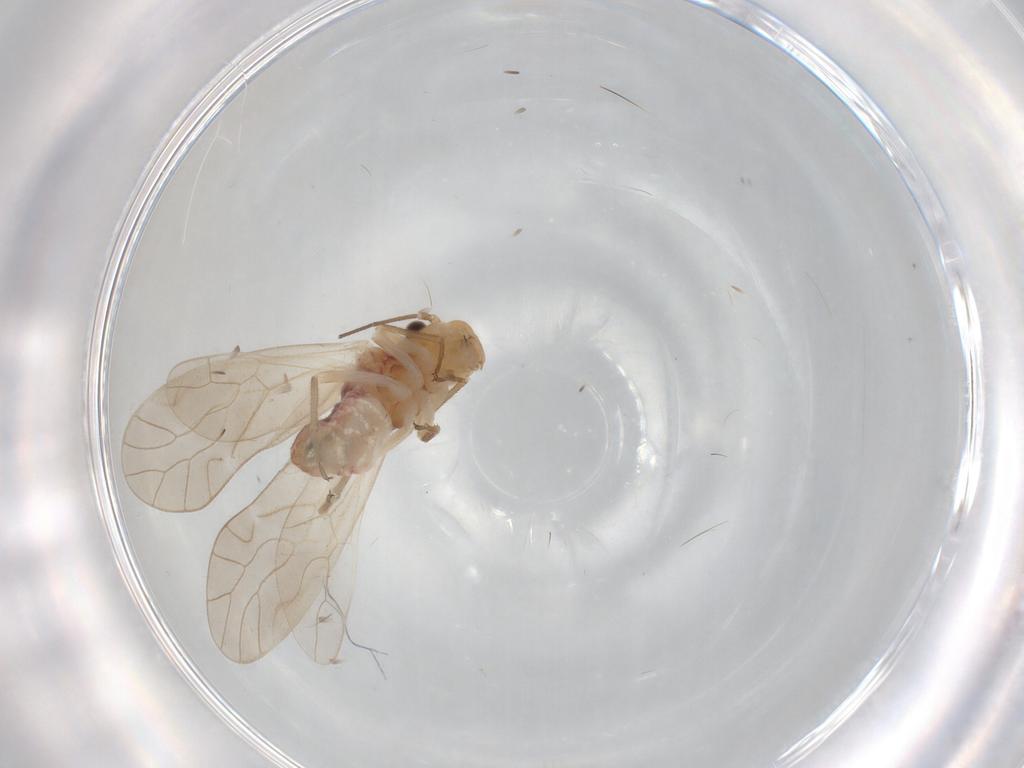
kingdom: Animalia
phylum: Arthropoda
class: Insecta
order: Psocodea
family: Caeciliusidae
